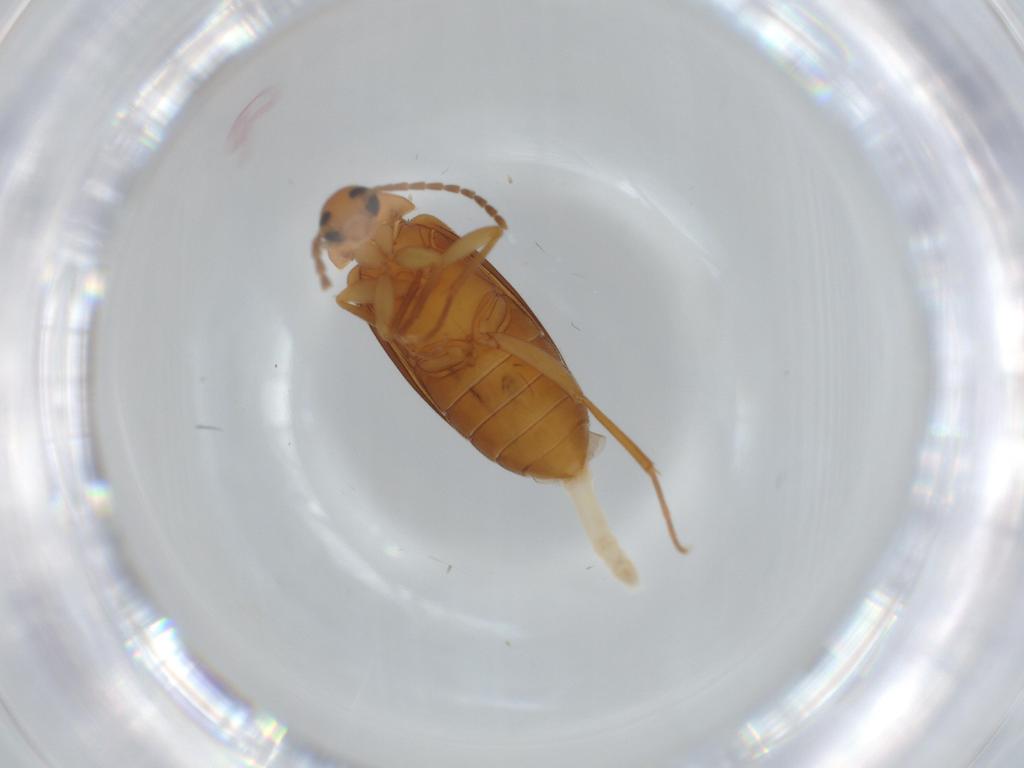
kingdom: Animalia
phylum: Arthropoda
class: Insecta
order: Coleoptera
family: Scraptiidae
